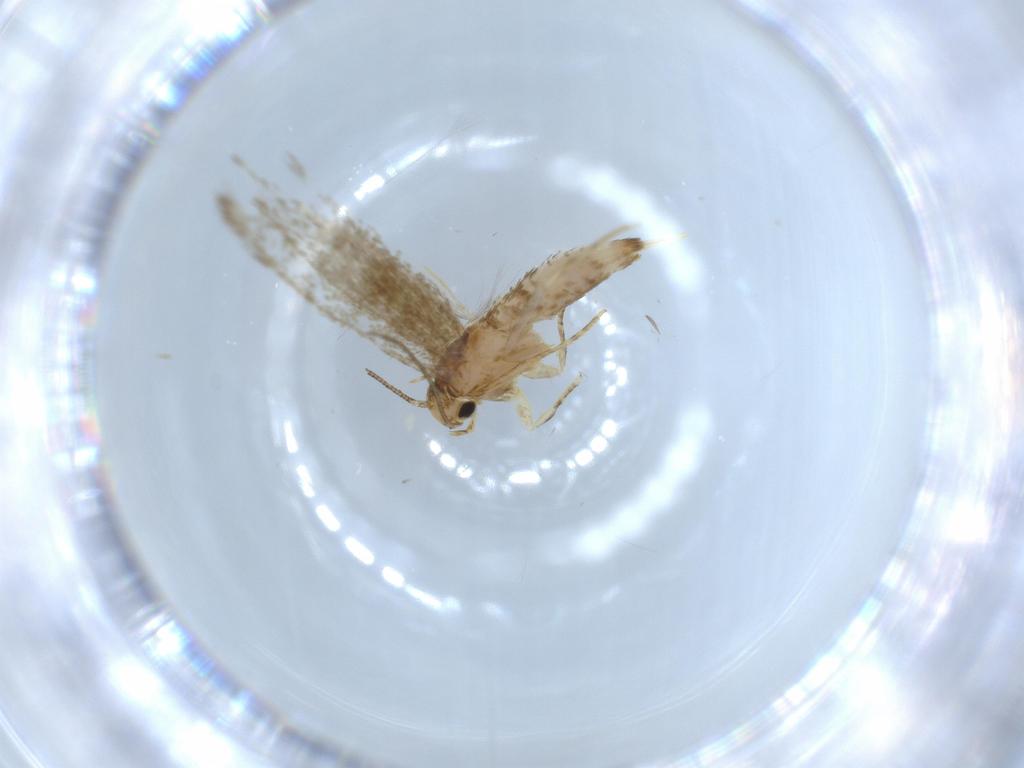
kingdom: Animalia
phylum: Arthropoda
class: Insecta
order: Lepidoptera
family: Tineidae
